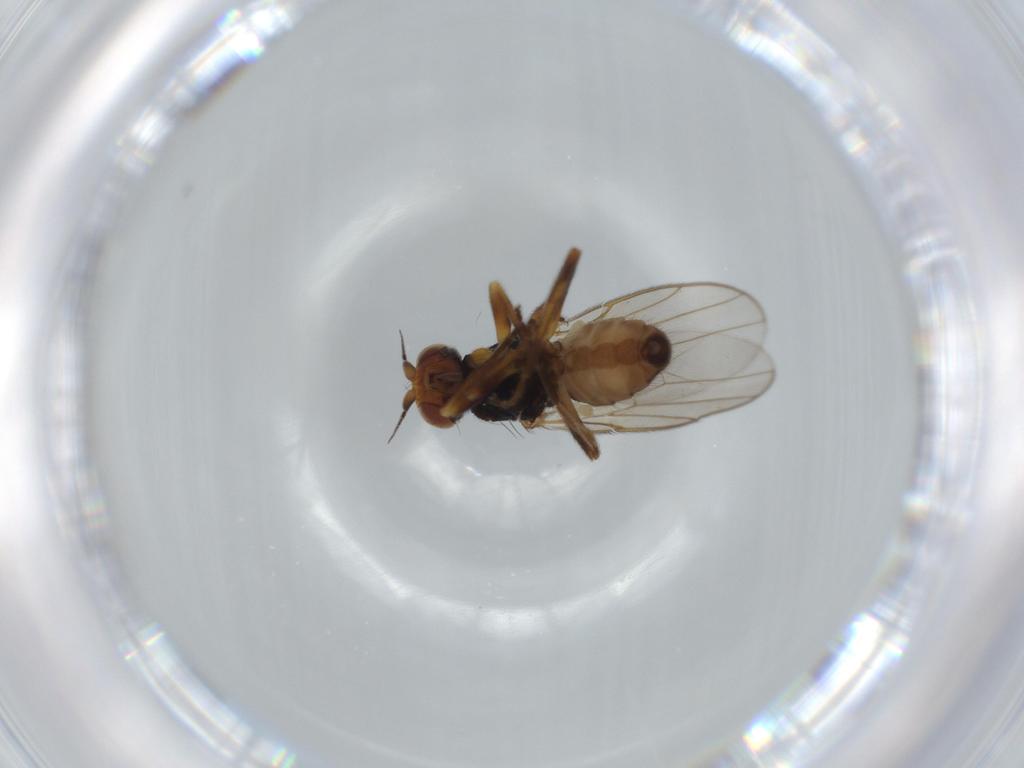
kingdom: Animalia
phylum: Arthropoda
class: Insecta
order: Diptera
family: Chloropidae
